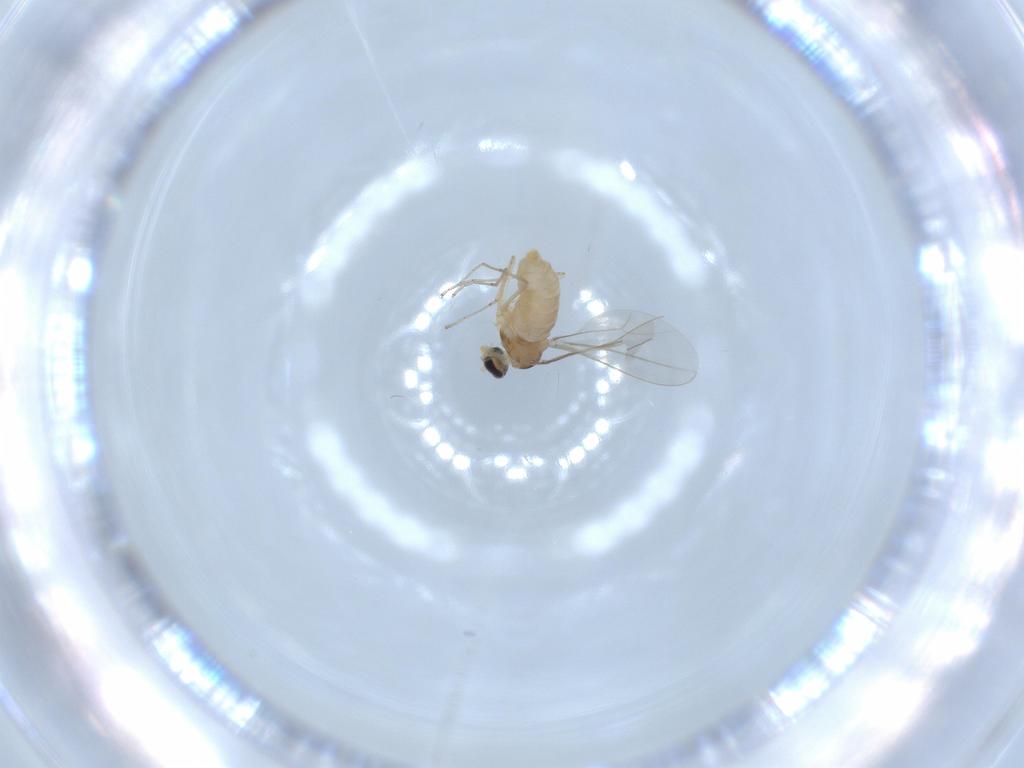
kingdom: Animalia
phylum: Arthropoda
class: Insecta
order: Diptera
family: Cecidomyiidae
